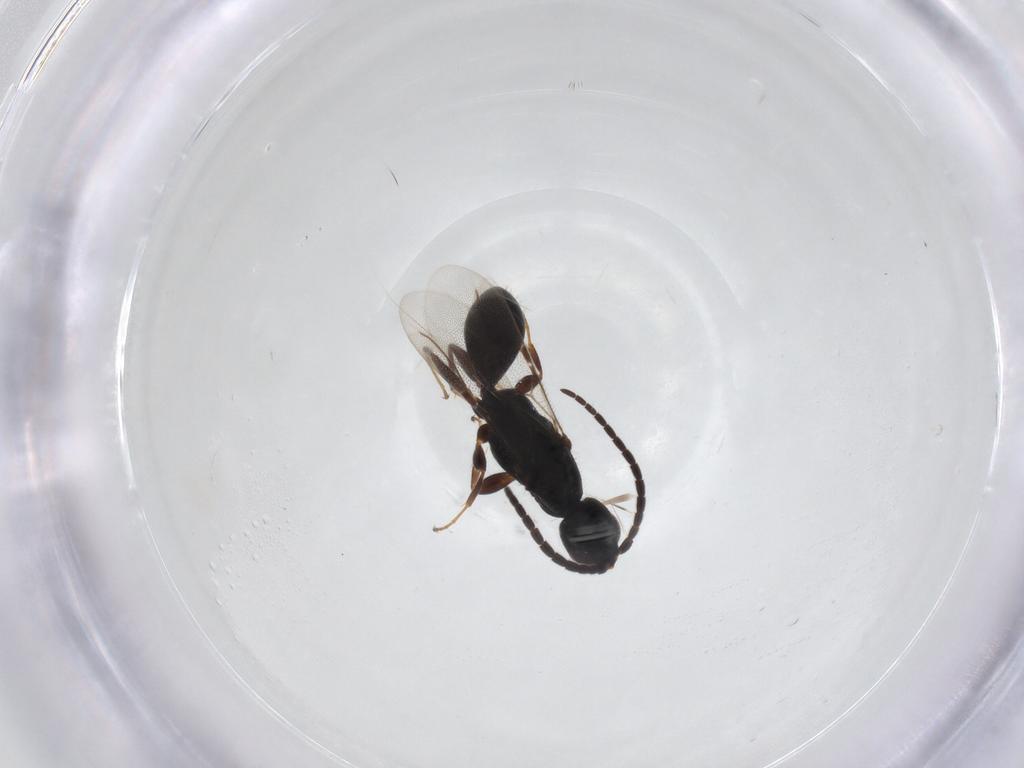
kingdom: Animalia
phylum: Arthropoda
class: Insecta
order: Hymenoptera
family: Bethylidae
